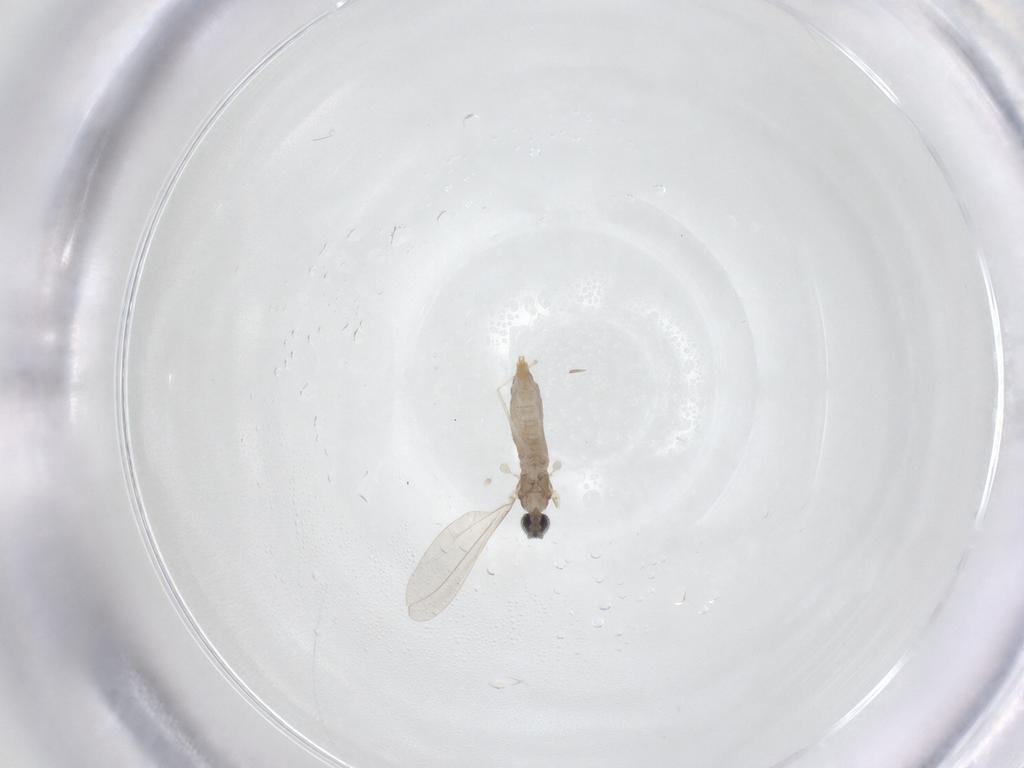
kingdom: Animalia
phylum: Arthropoda
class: Insecta
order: Diptera
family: Cecidomyiidae
